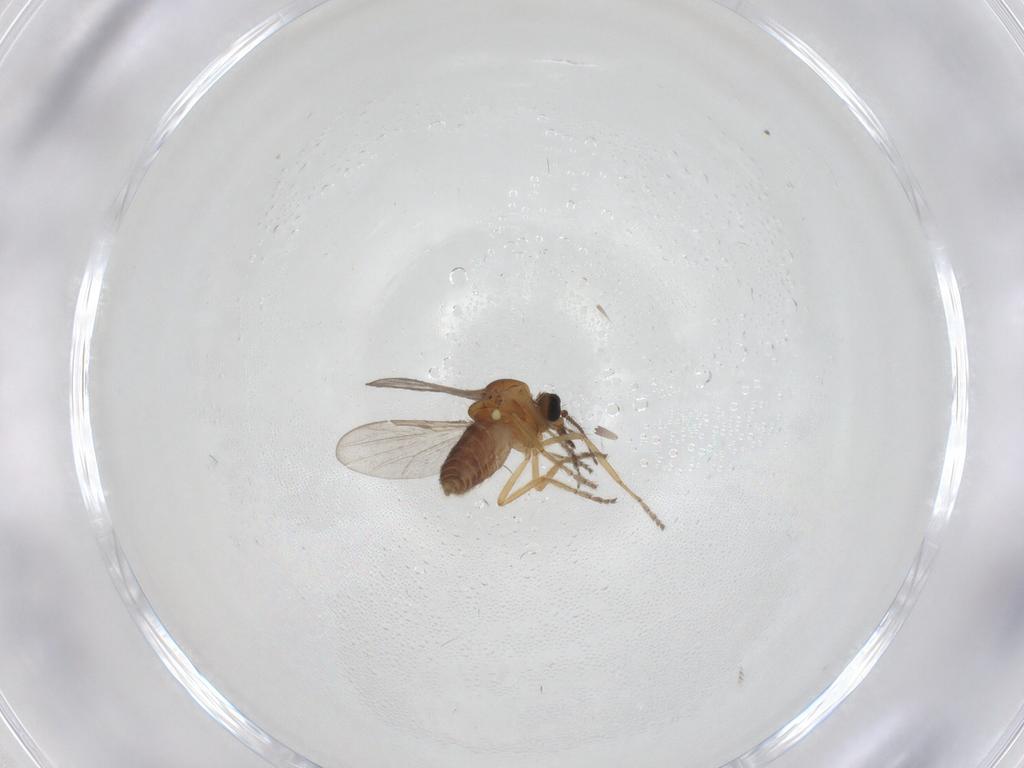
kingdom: Animalia
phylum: Arthropoda
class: Insecta
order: Diptera
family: Ceratopogonidae
